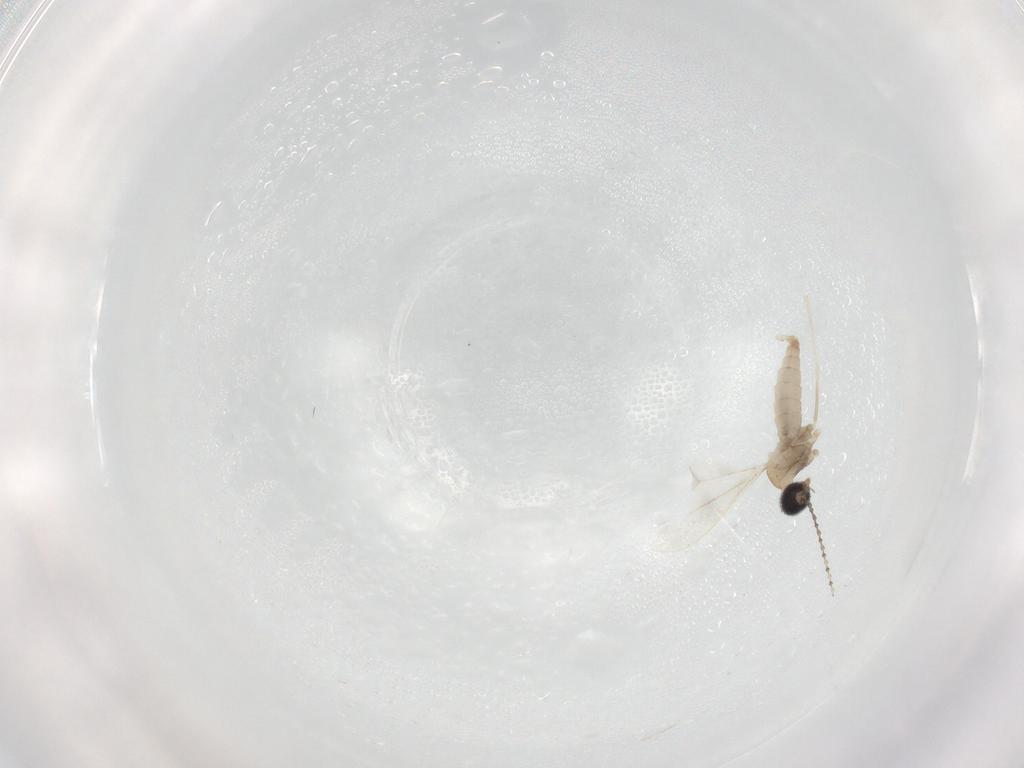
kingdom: Animalia
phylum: Arthropoda
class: Insecta
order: Diptera
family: Cecidomyiidae
